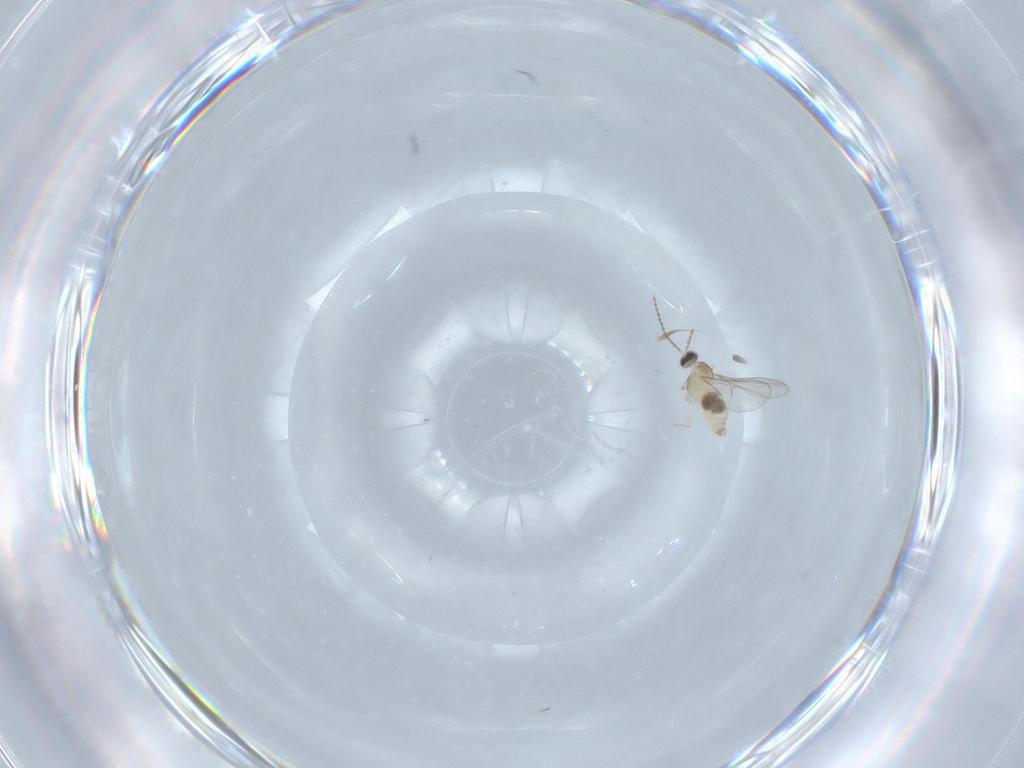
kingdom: Animalia
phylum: Arthropoda
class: Insecta
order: Diptera
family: Cecidomyiidae
